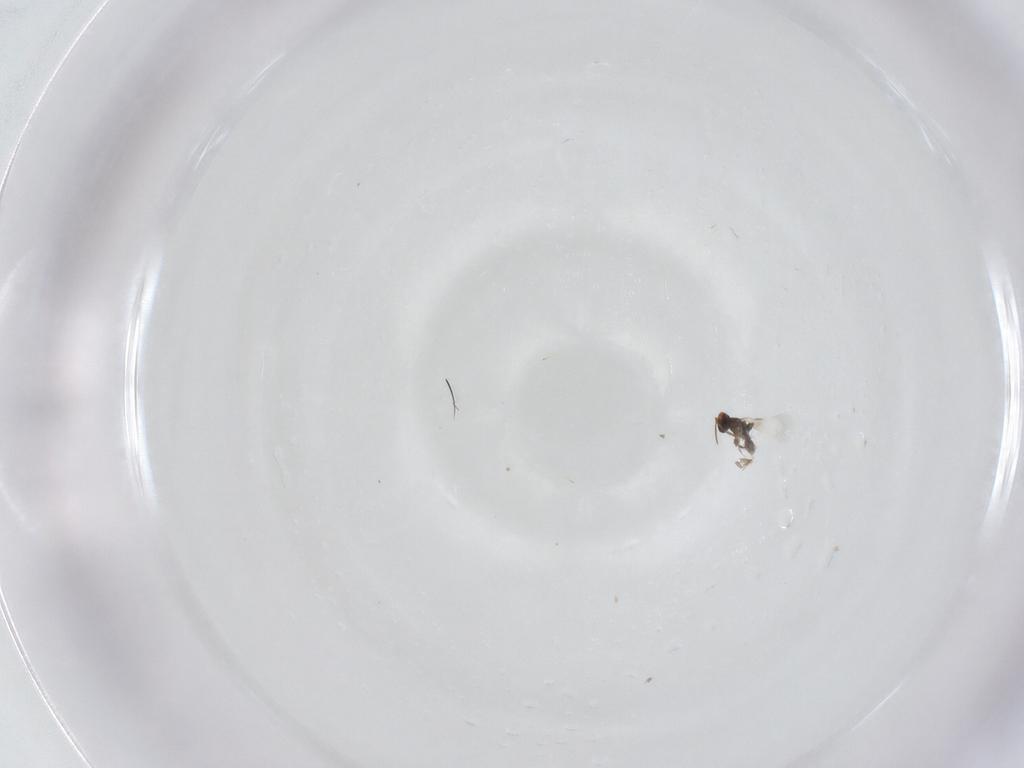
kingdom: Animalia
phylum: Arthropoda
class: Insecta
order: Hymenoptera
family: Signiphoridae
